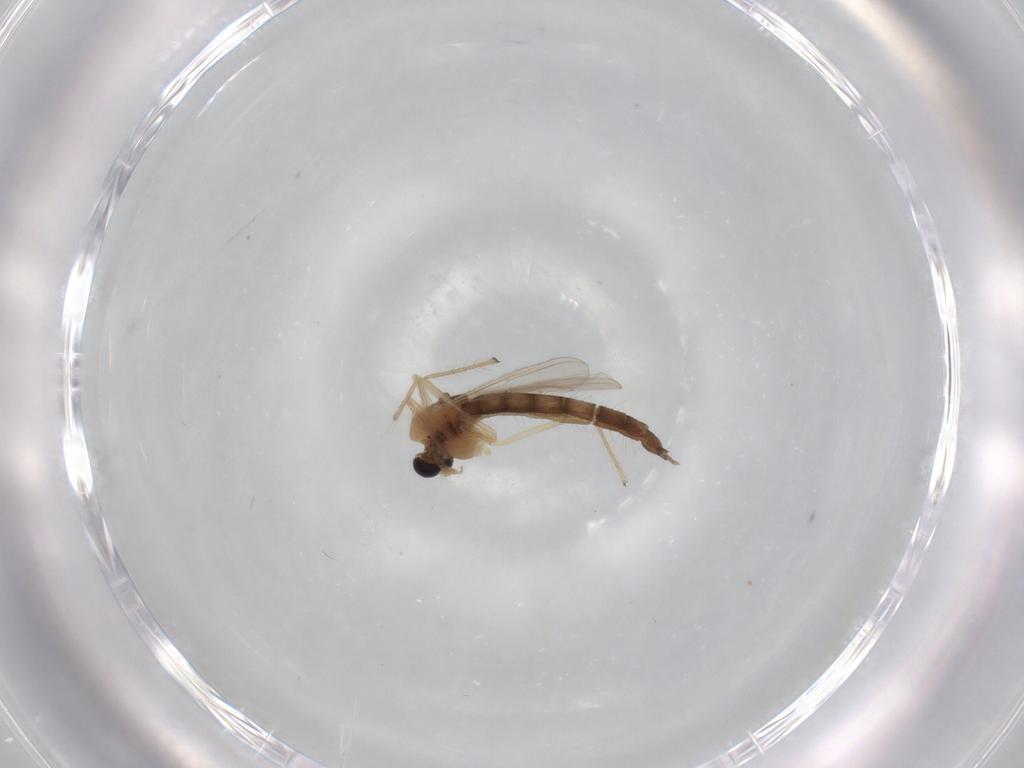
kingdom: Animalia
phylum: Arthropoda
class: Insecta
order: Diptera
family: Chironomidae
